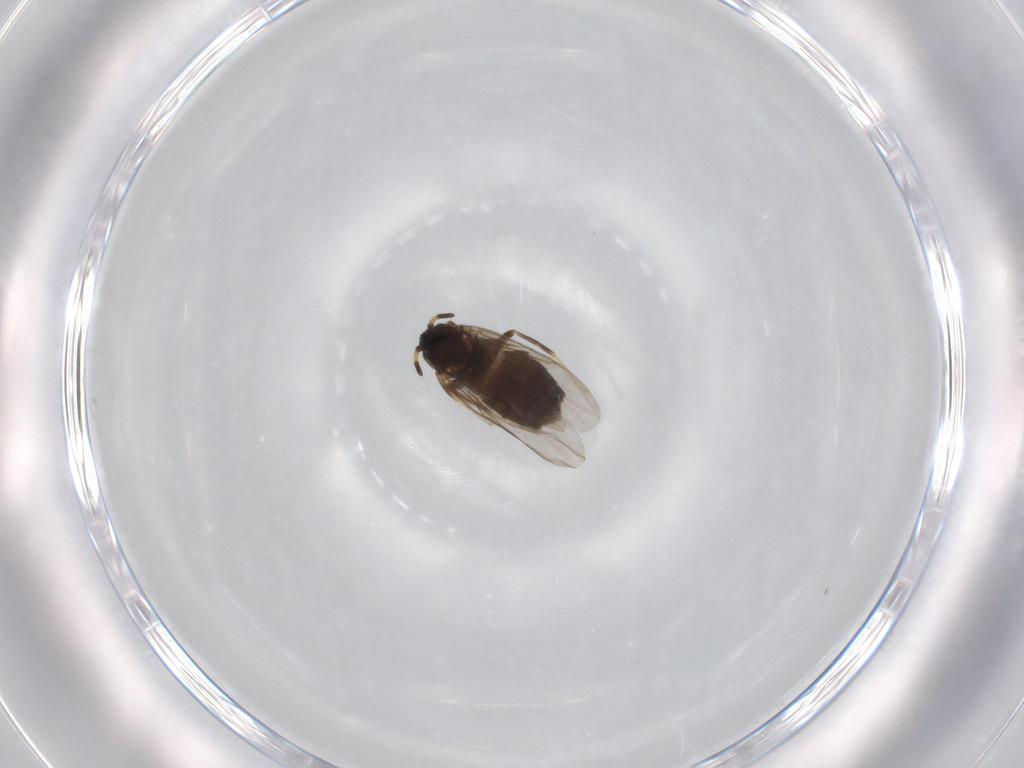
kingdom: Animalia
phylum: Arthropoda
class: Insecta
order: Diptera
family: Scatopsidae
